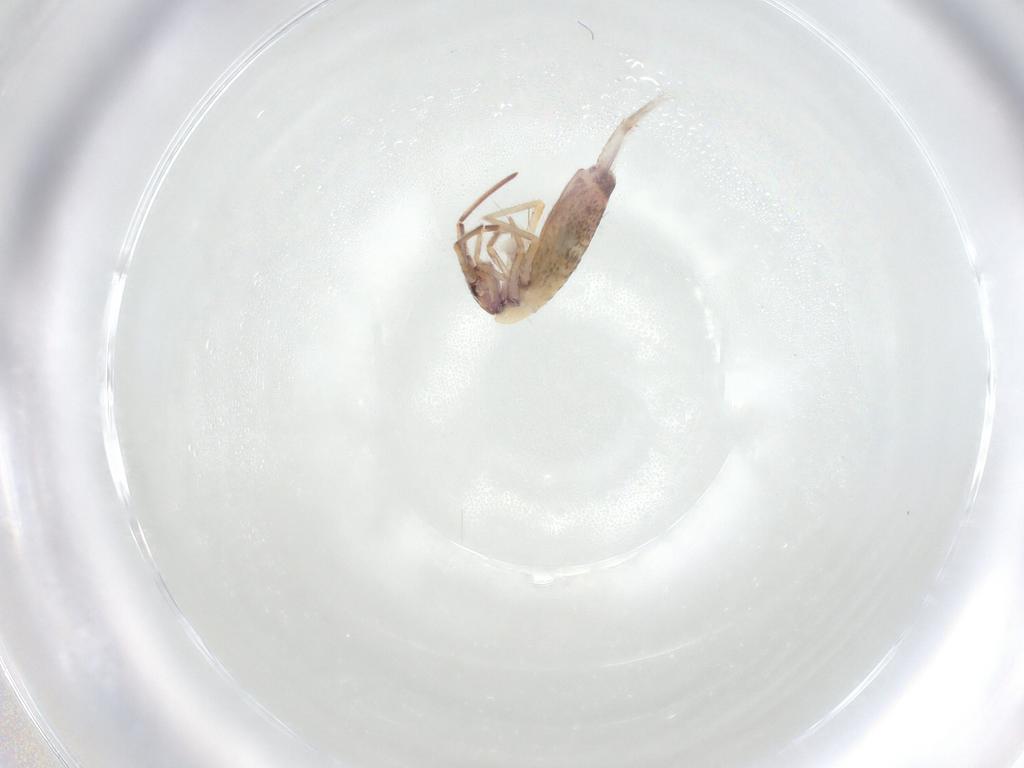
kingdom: Animalia
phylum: Arthropoda
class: Collembola
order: Entomobryomorpha
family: Entomobryidae
